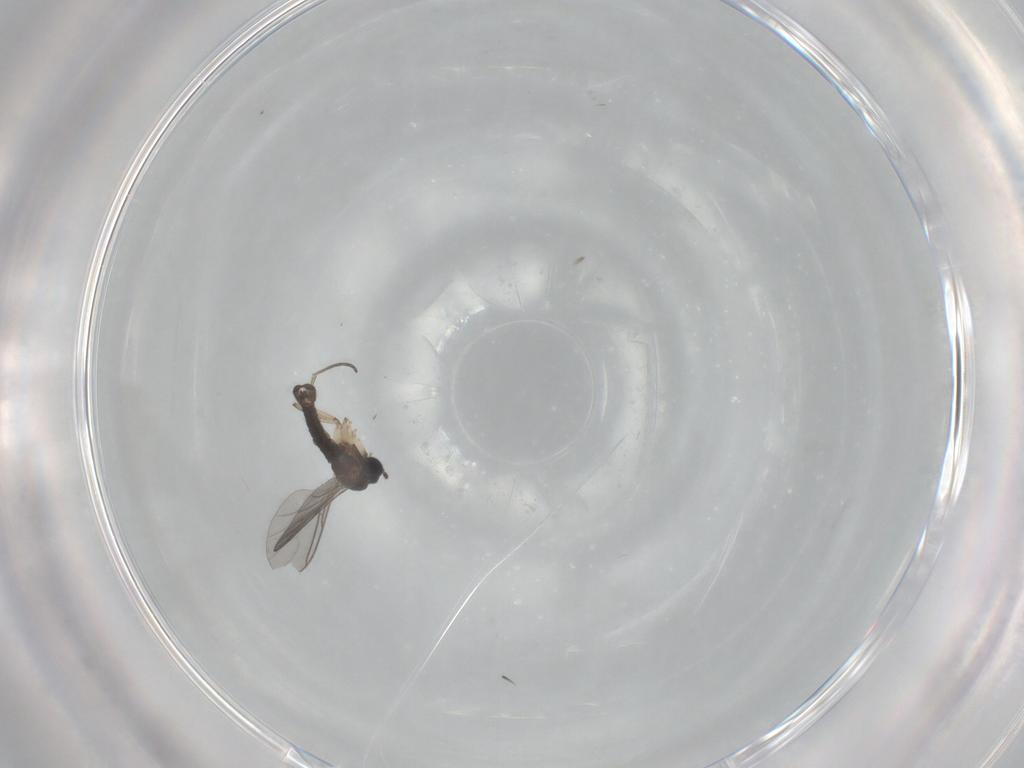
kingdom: Animalia
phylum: Arthropoda
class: Insecta
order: Diptera
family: Sciaridae
